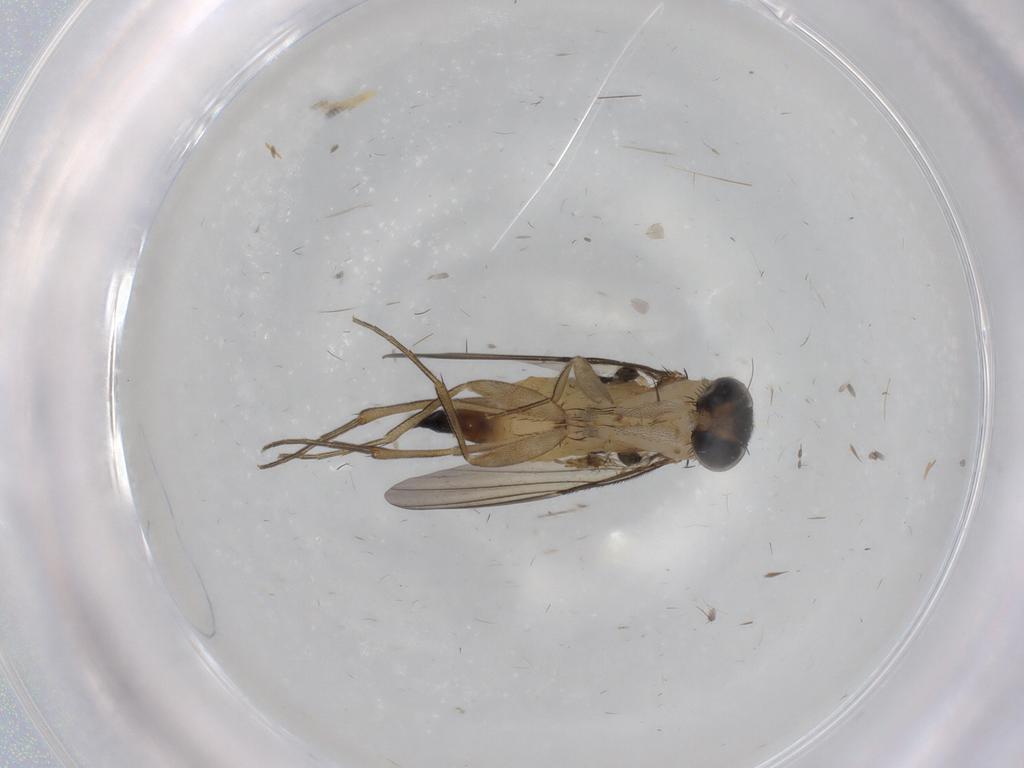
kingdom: Animalia
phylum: Arthropoda
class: Insecta
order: Diptera
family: Phoridae
